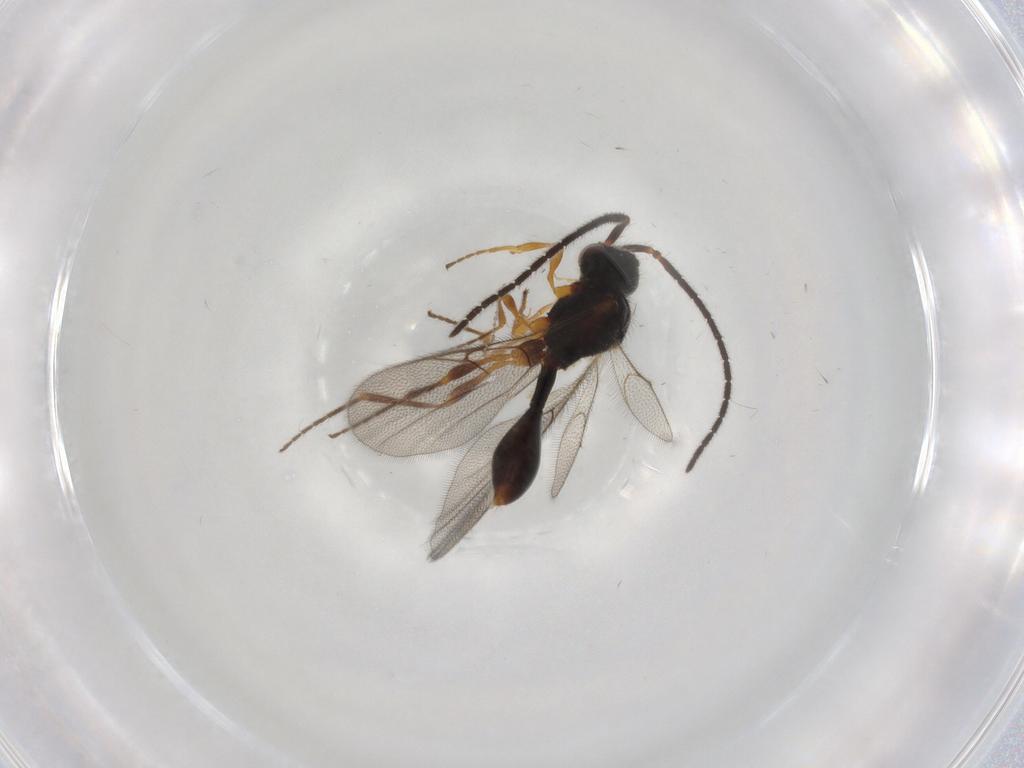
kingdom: Animalia
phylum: Arthropoda
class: Insecta
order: Hymenoptera
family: Diapriidae
